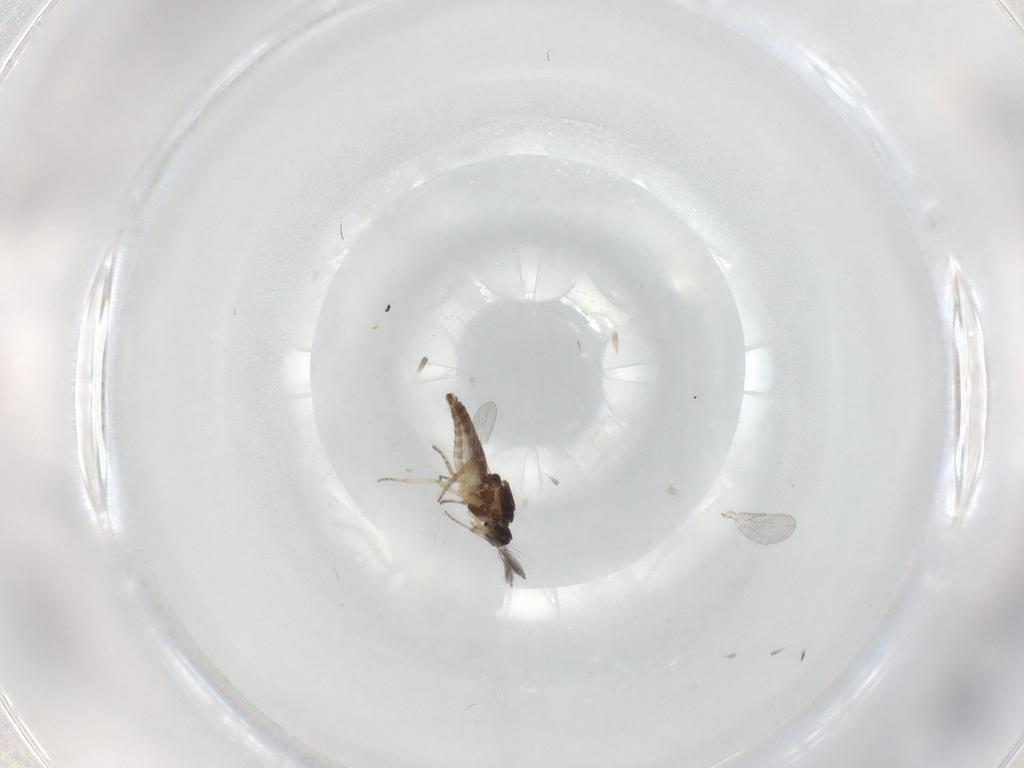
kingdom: Animalia
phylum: Arthropoda
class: Insecta
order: Diptera
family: Ceratopogonidae
